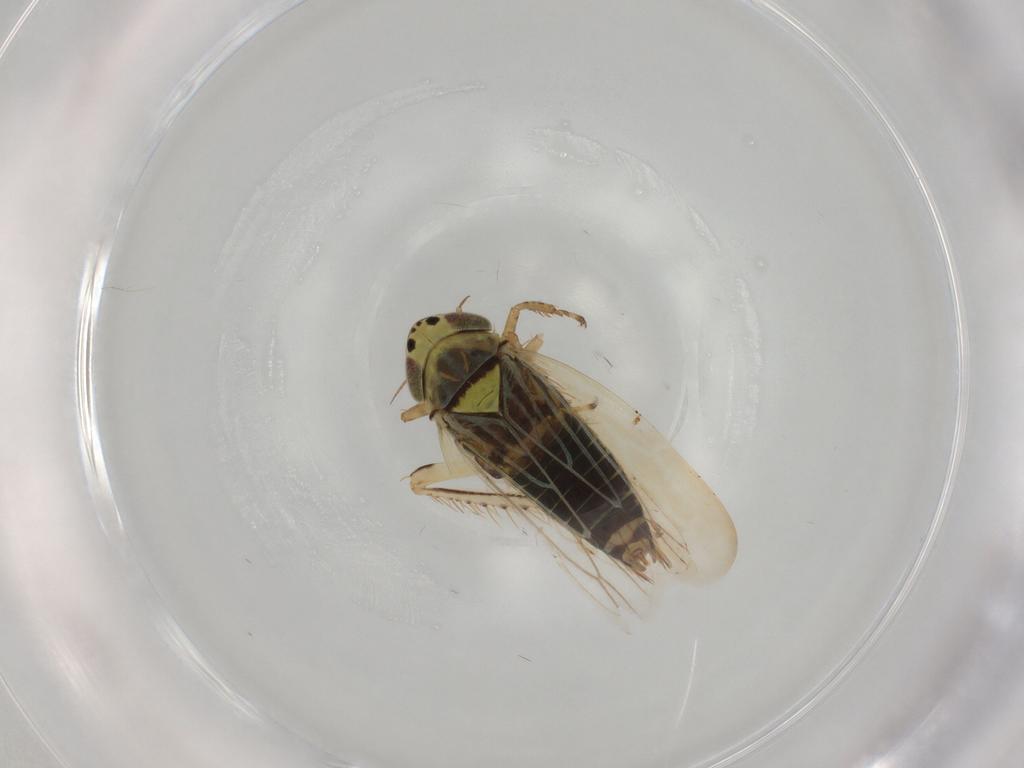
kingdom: Animalia
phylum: Arthropoda
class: Insecta
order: Hemiptera
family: Cicadellidae
